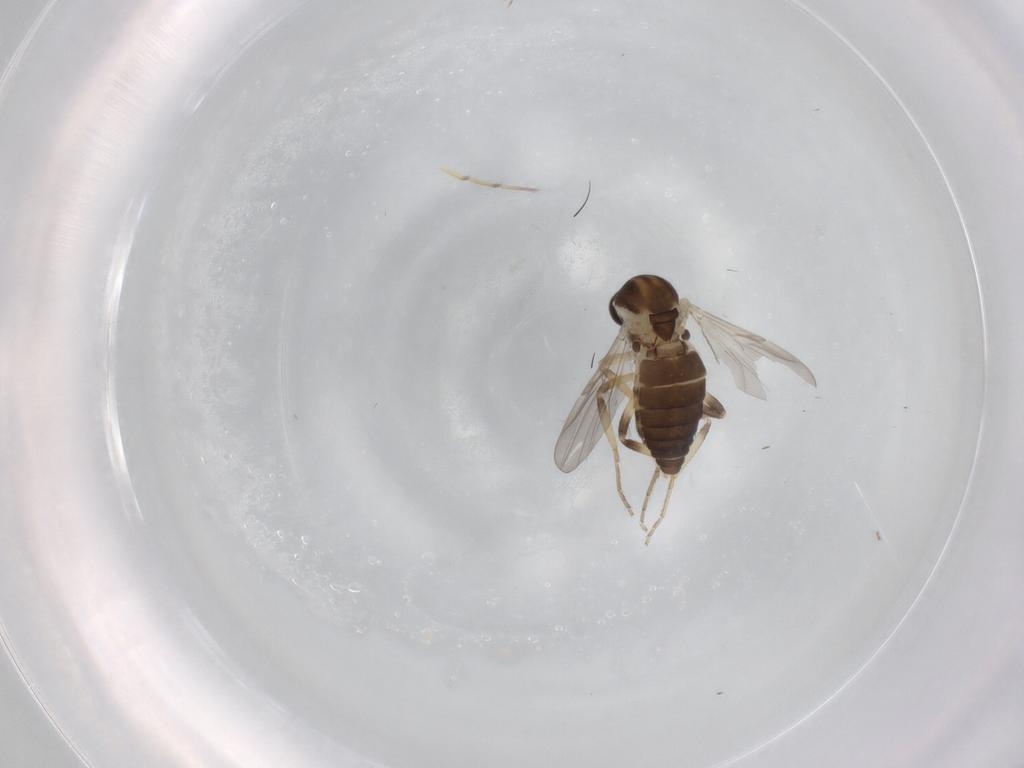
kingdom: Animalia
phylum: Arthropoda
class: Insecta
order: Diptera
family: Ceratopogonidae
